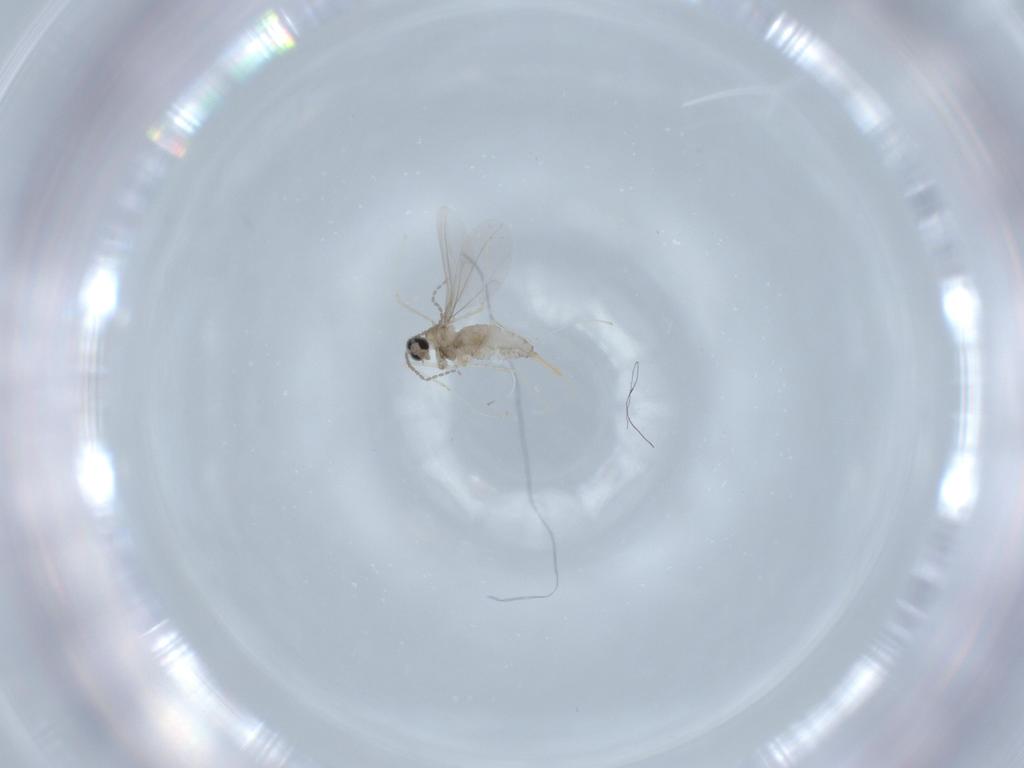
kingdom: Animalia
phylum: Arthropoda
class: Insecta
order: Diptera
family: Cecidomyiidae
